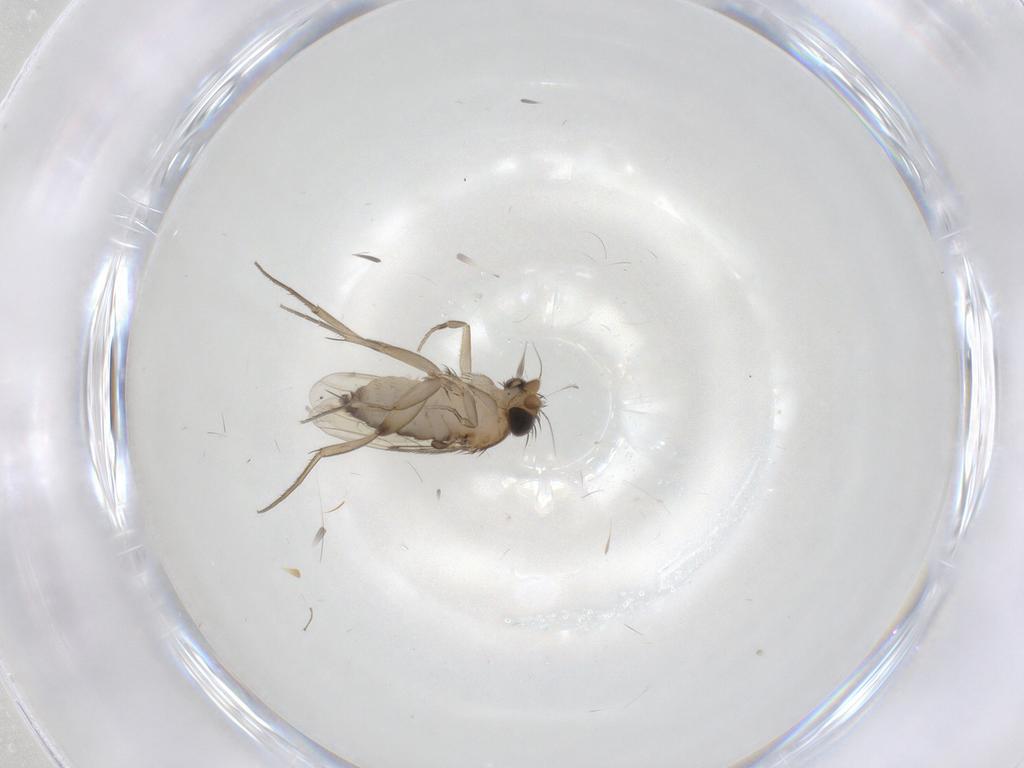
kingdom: Animalia
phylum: Arthropoda
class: Insecta
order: Diptera
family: Phoridae
